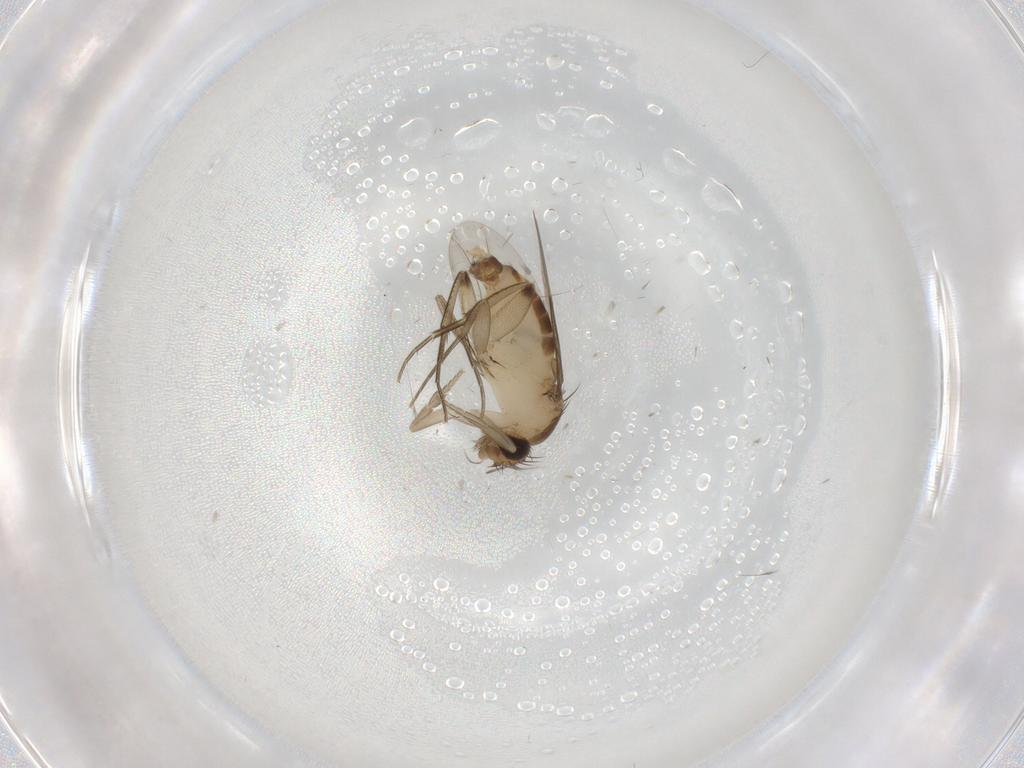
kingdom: Animalia
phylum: Arthropoda
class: Insecta
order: Diptera
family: Phoridae
